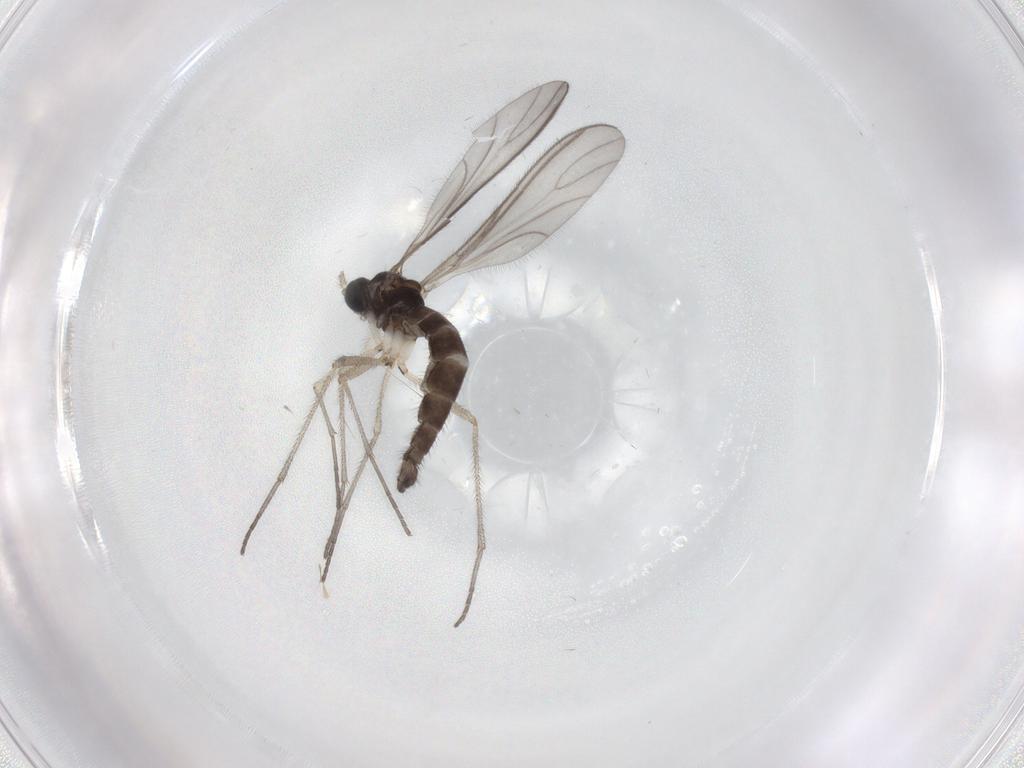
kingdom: Animalia
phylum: Arthropoda
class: Insecta
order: Diptera
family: Sciaridae
